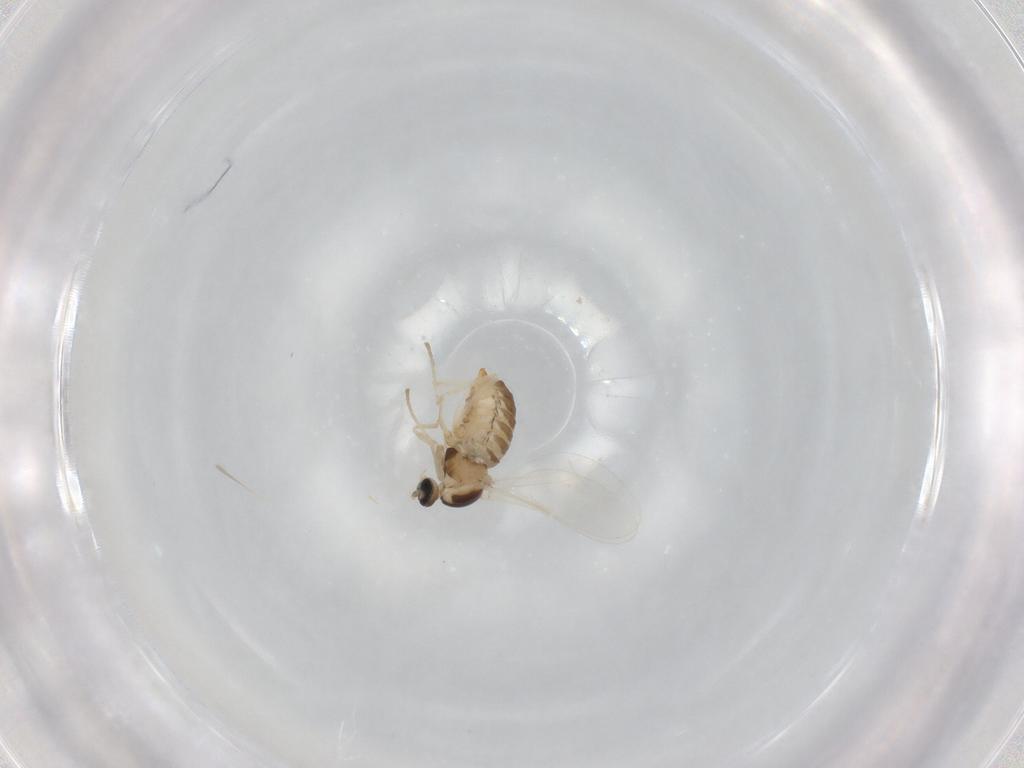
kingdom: Animalia
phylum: Arthropoda
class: Insecta
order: Diptera
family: Cecidomyiidae
